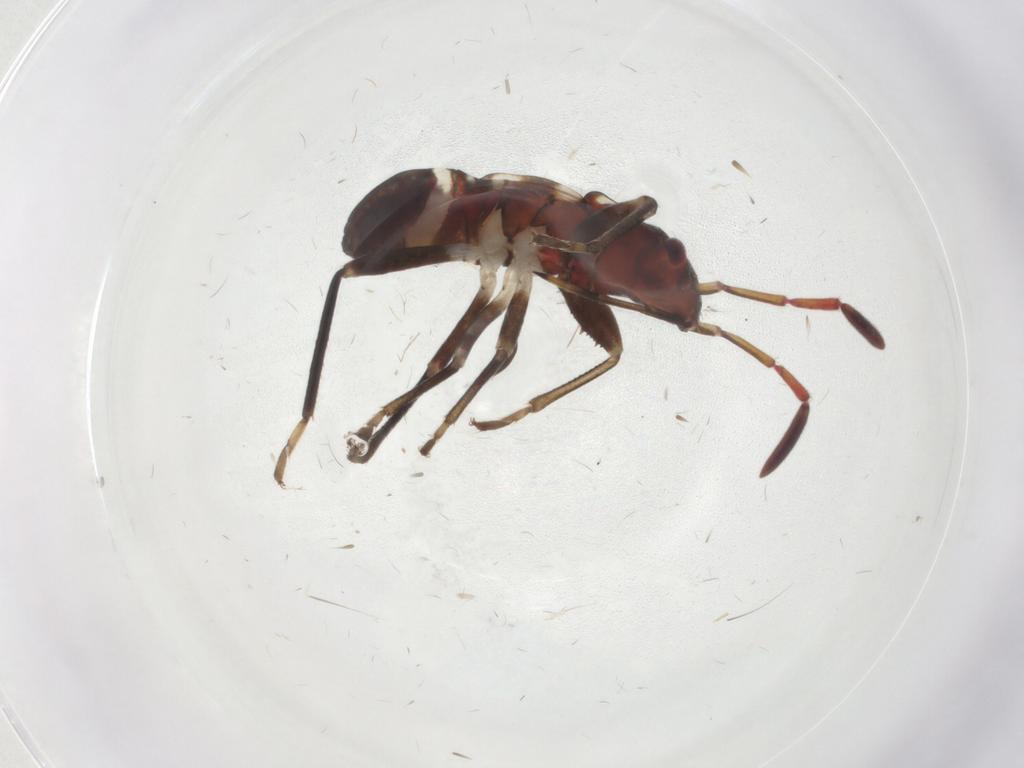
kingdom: Animalia
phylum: Arthropoda
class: Insecta
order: Hemiptera
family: Rhyparochromidae
